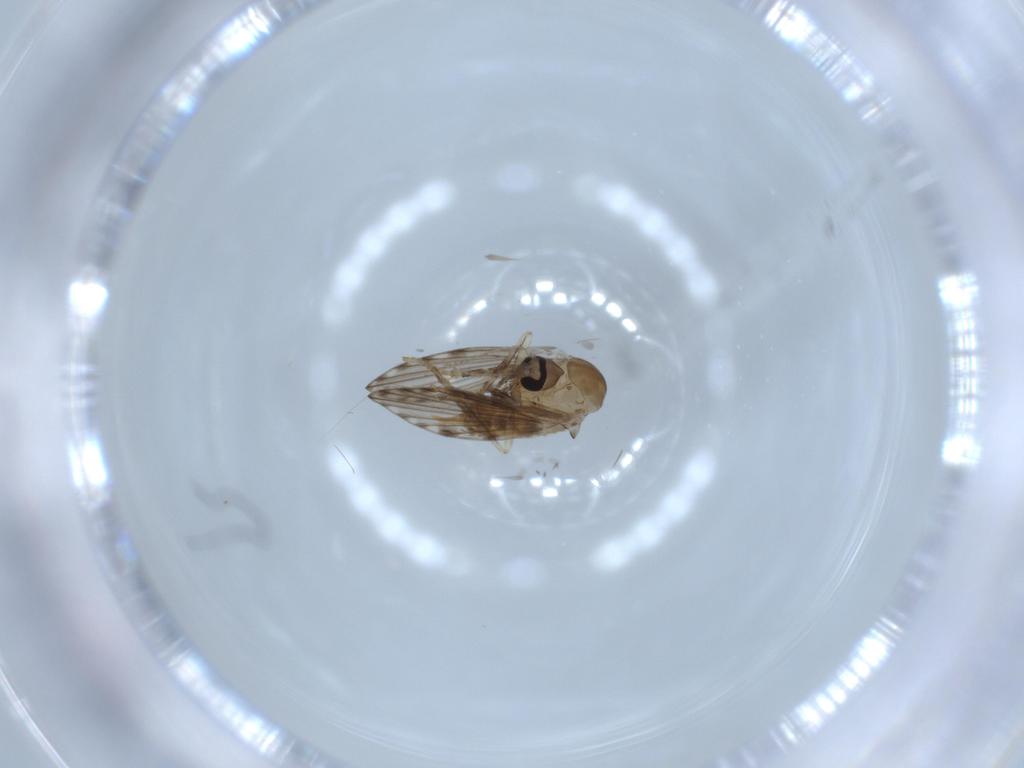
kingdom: Animalia
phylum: Arthropoda
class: Insecta
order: Diptera
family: Psychodidae
